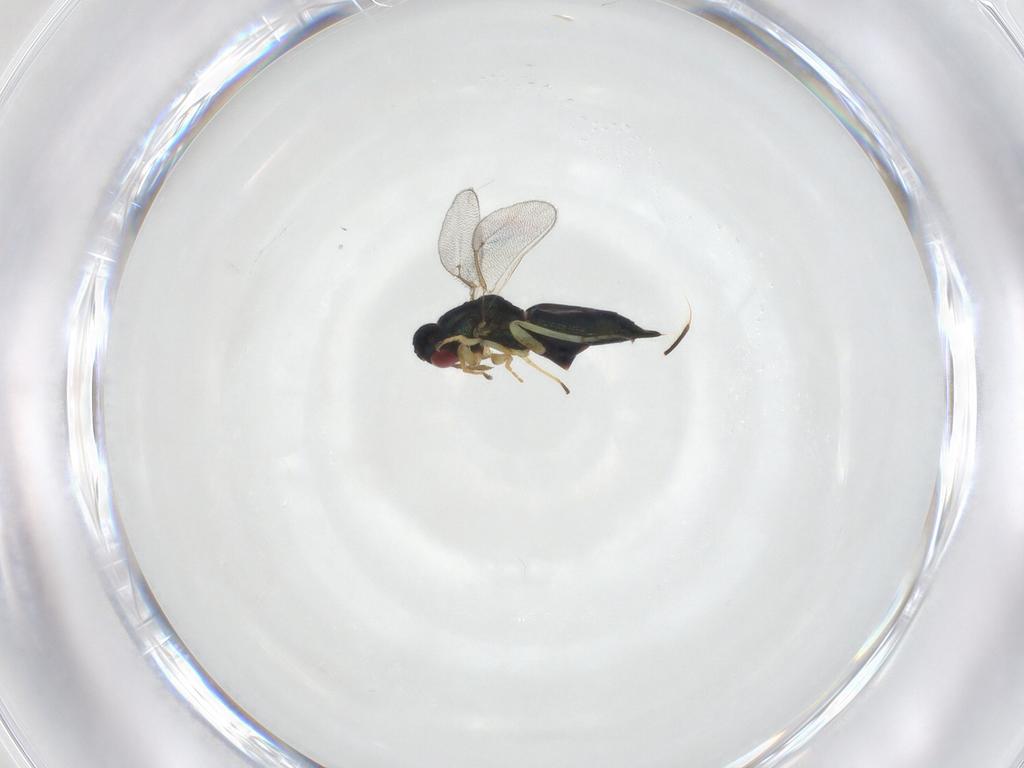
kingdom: Animalia
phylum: Arthropoda
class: Insecta
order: Hymenoptera
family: Eulophidae
